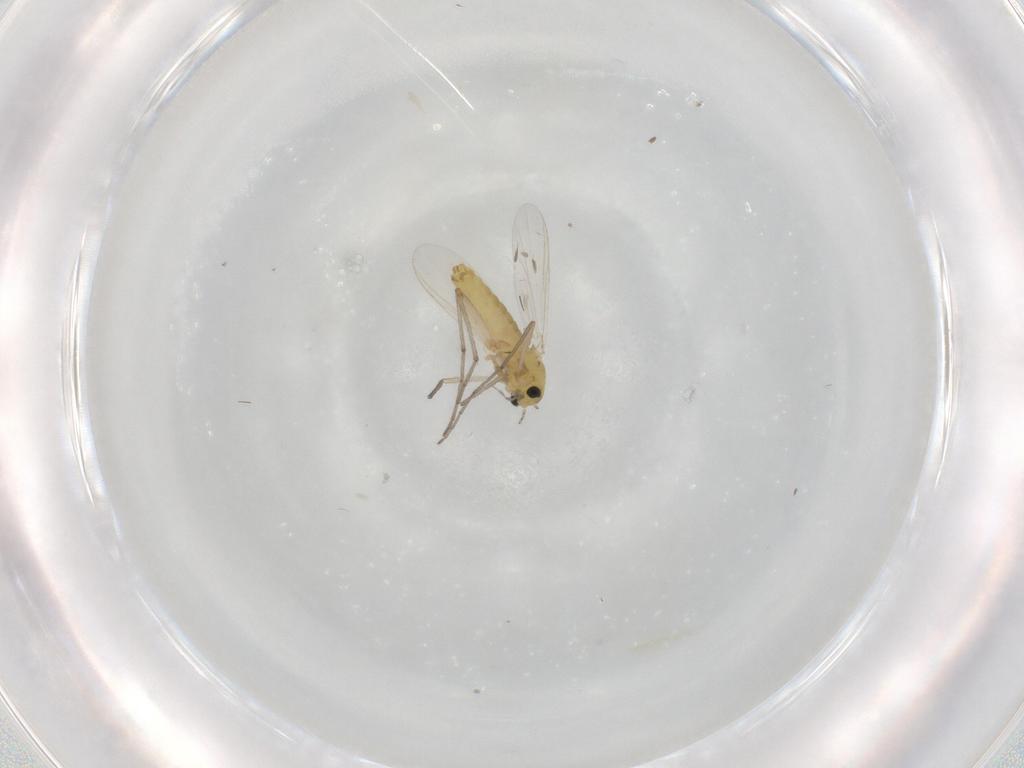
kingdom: Animalia
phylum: Arthropoda
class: Insecta
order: Diptera
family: Chironomidae
